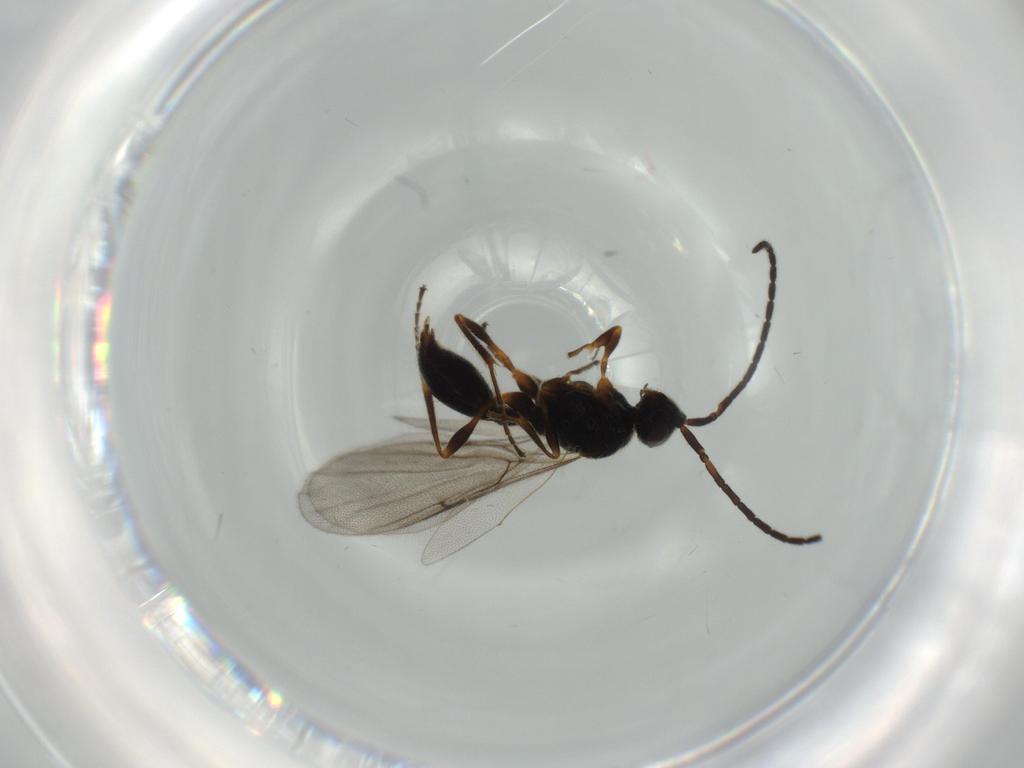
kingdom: Animalia
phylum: Arthropoda
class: Insecta
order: Hymenoptera
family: Diapriidae
